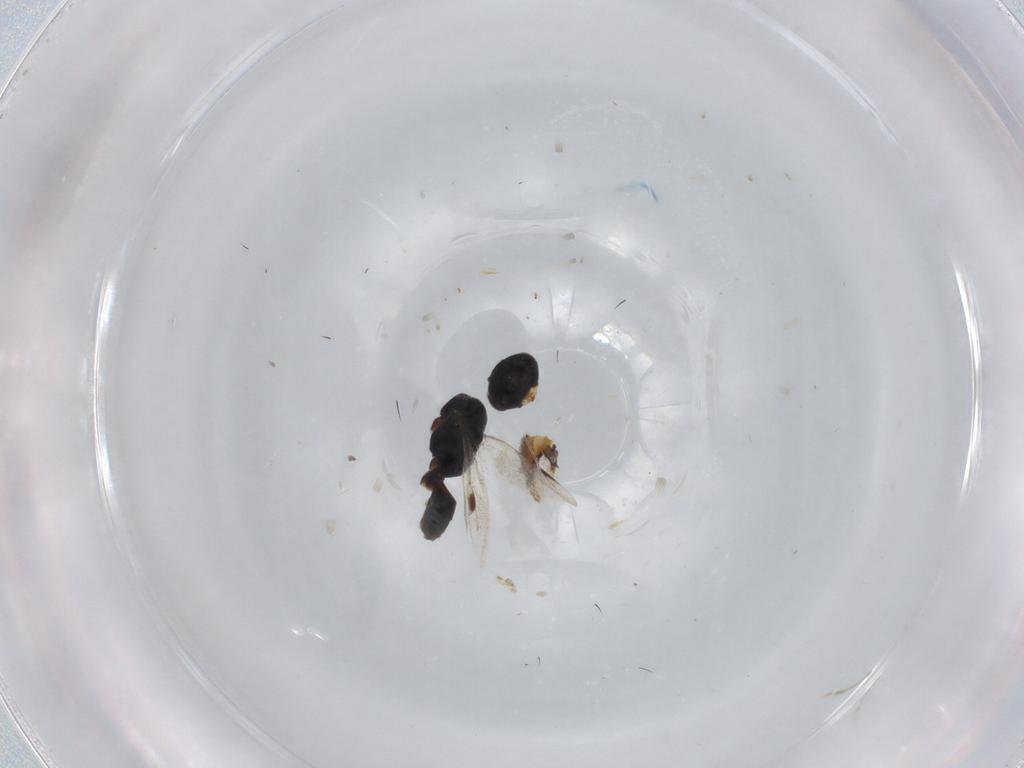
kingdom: Animalia
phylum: Arthropoda
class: Insecta
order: Hymenoptera
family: Dryinidae
